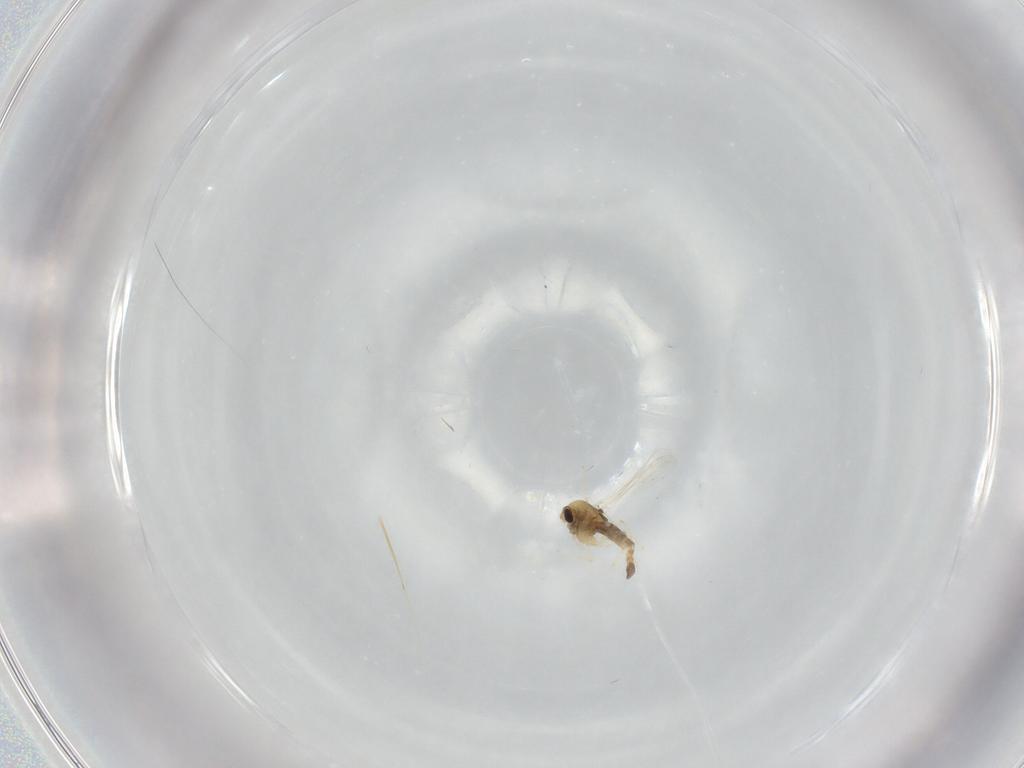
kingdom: Animalia
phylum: Arthropoda
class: Insecta
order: Diptera
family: Chironomidae
